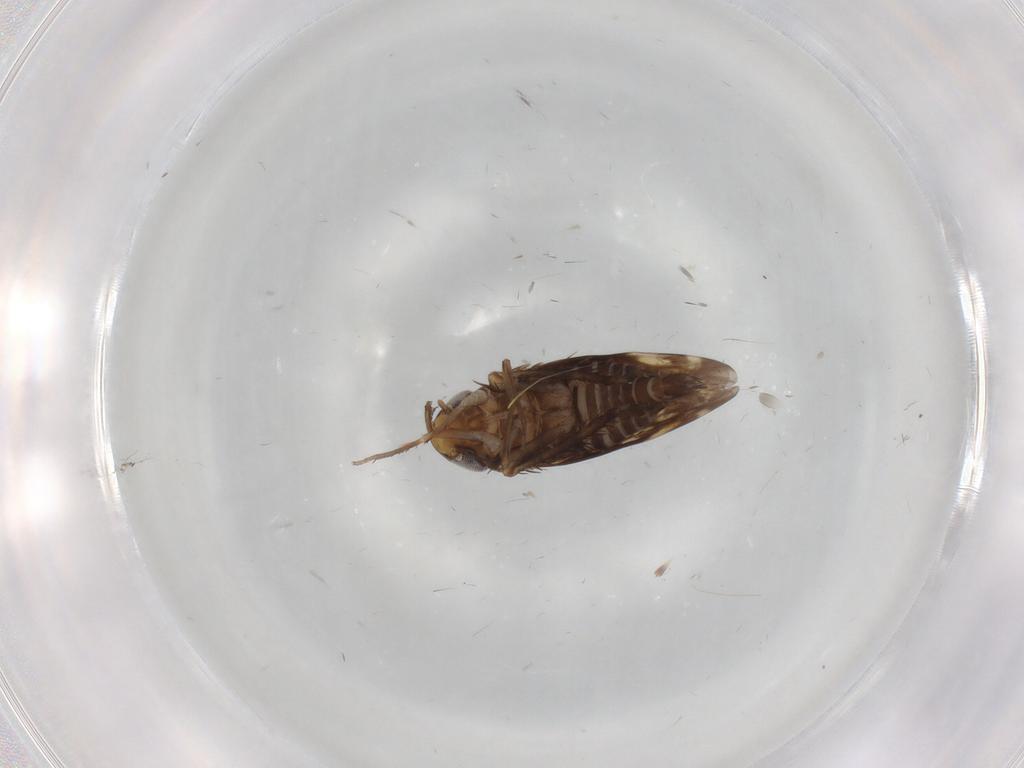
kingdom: Animalia
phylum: Arthropoda
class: Insecta
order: Hemiptera
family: Cicadellidae
